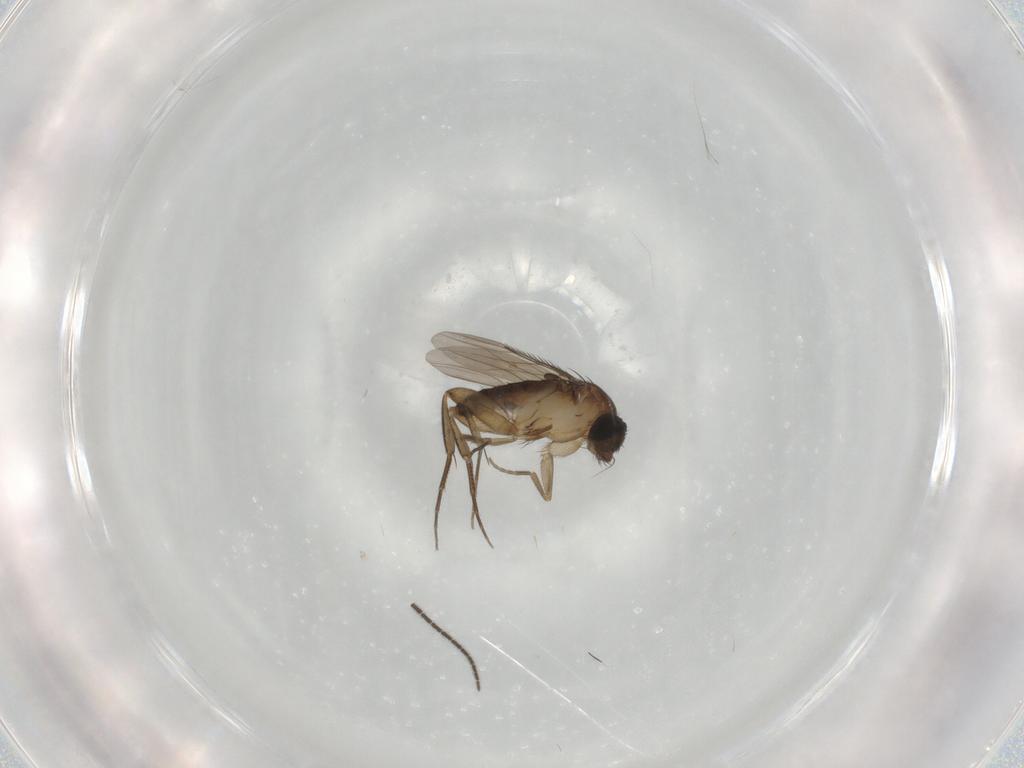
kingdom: Animalia
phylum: Arthropoda
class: Insecta
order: Diptera
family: Phoridae
